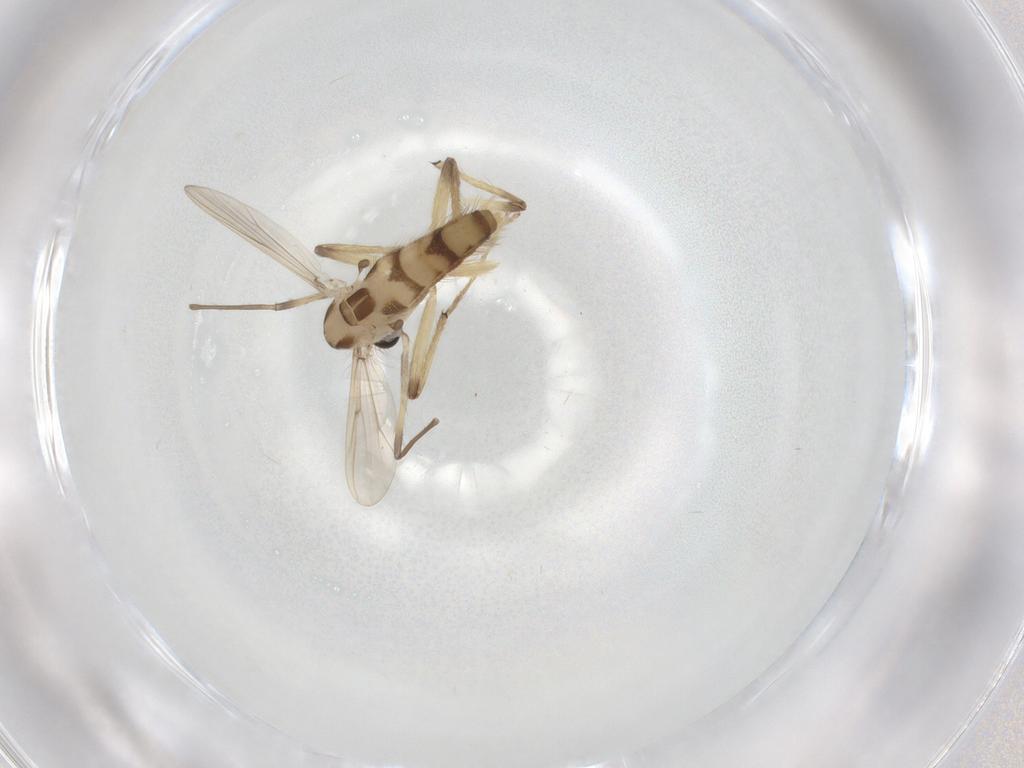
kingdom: Animalia
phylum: Arthropoda
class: Insecta
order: Diptera
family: Chironomidae
